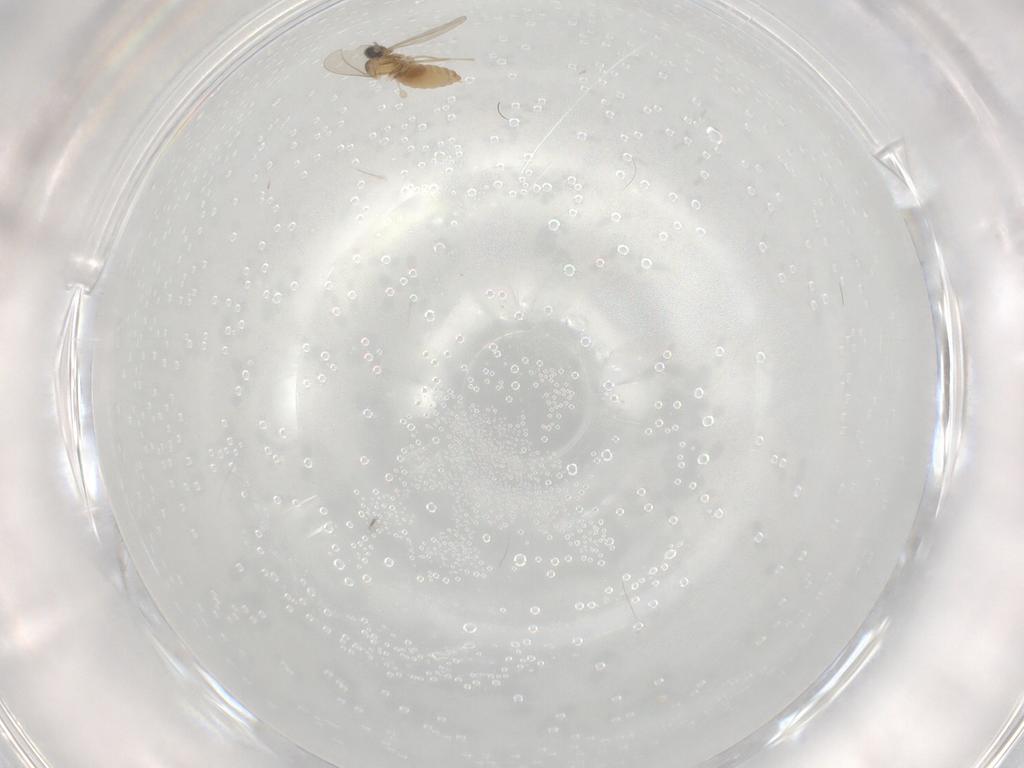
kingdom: Animalia
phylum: Arthropoda
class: Insecta
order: Diptera
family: Cecidomyiidae
